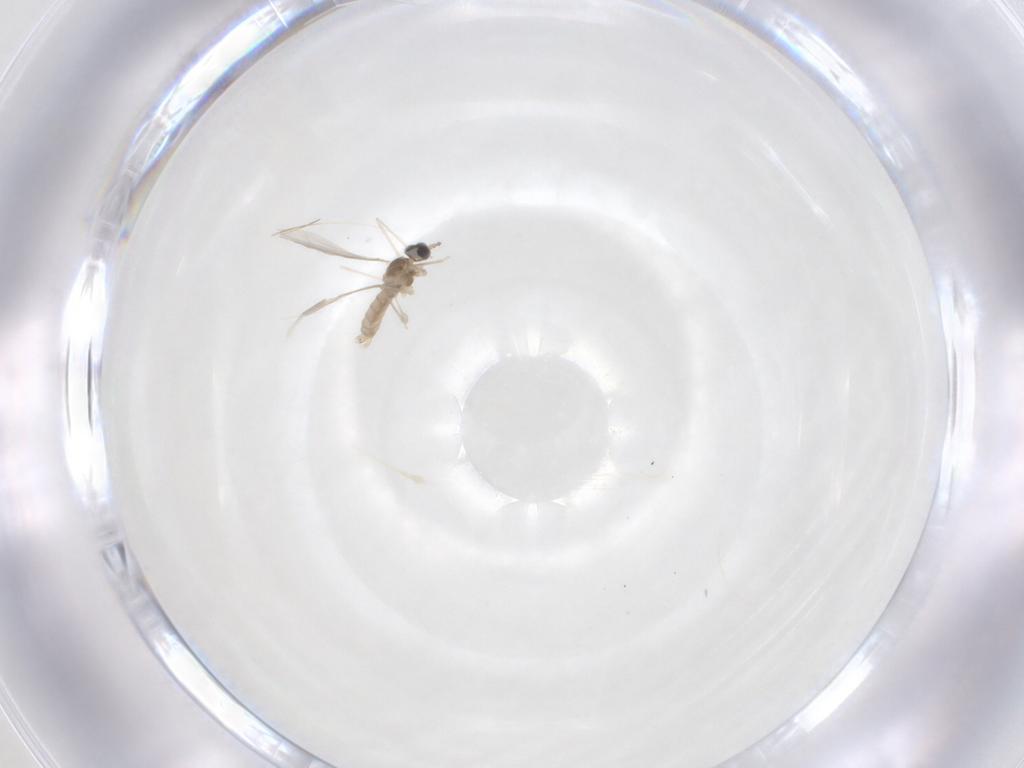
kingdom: Animalia
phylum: Arthropoda
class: Insecta
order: Diptera
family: Cecidomyiidae
